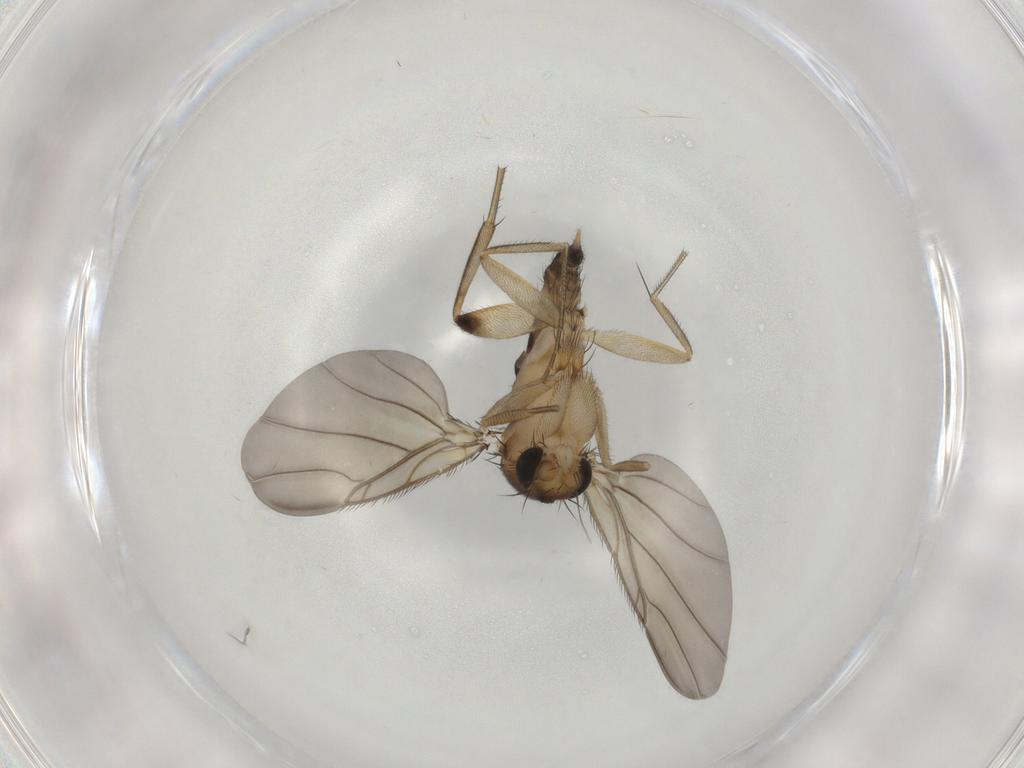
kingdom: Animalia
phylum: Arthropoda
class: Insecta
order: Diptera
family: Phoridae
